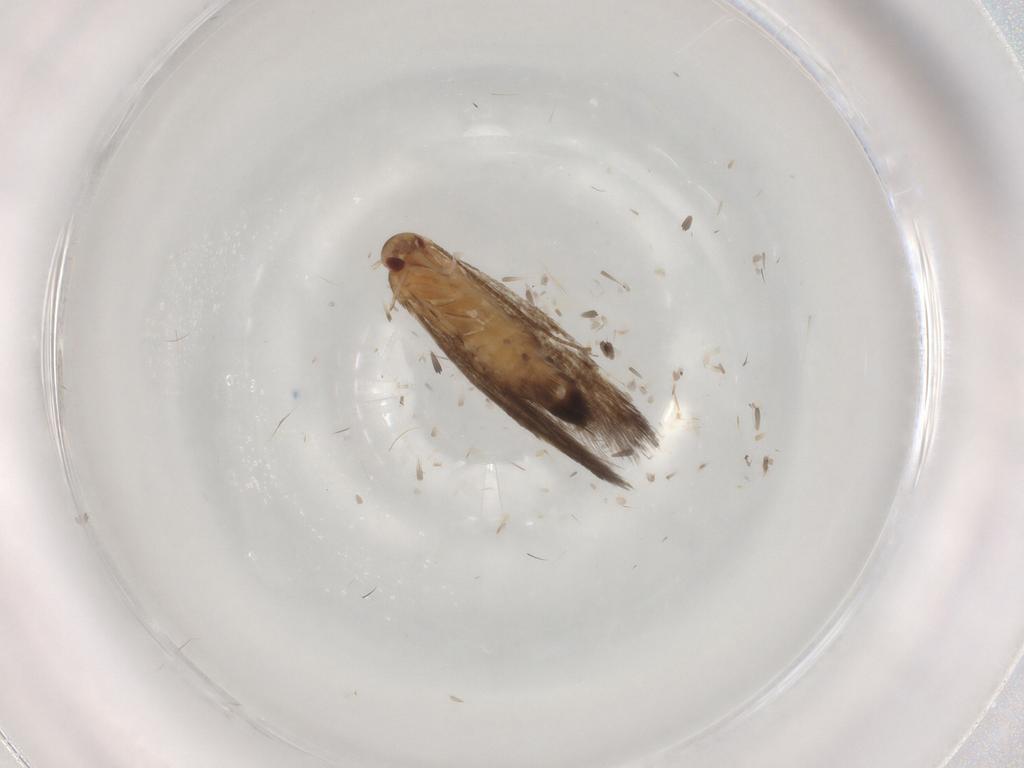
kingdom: Animalia
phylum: Arthropoda
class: Insecta
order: Lepidoptera
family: Elachistidae
